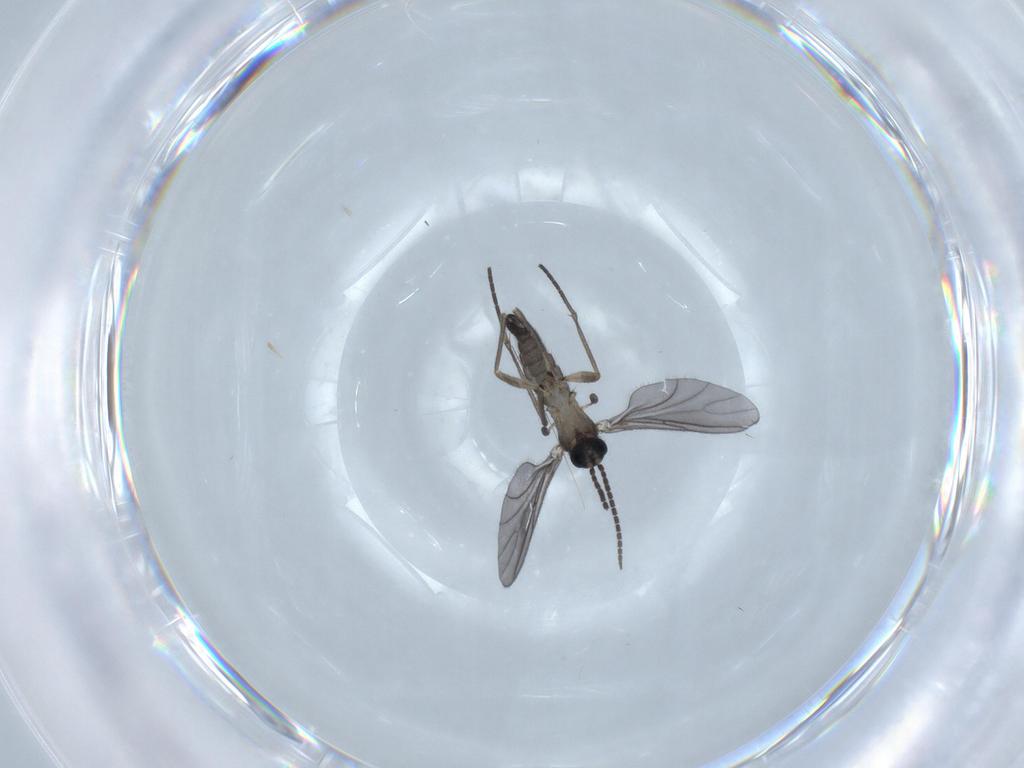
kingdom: Animalia
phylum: Arthropoda
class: Insecta
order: Diptera
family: Sciaridae
